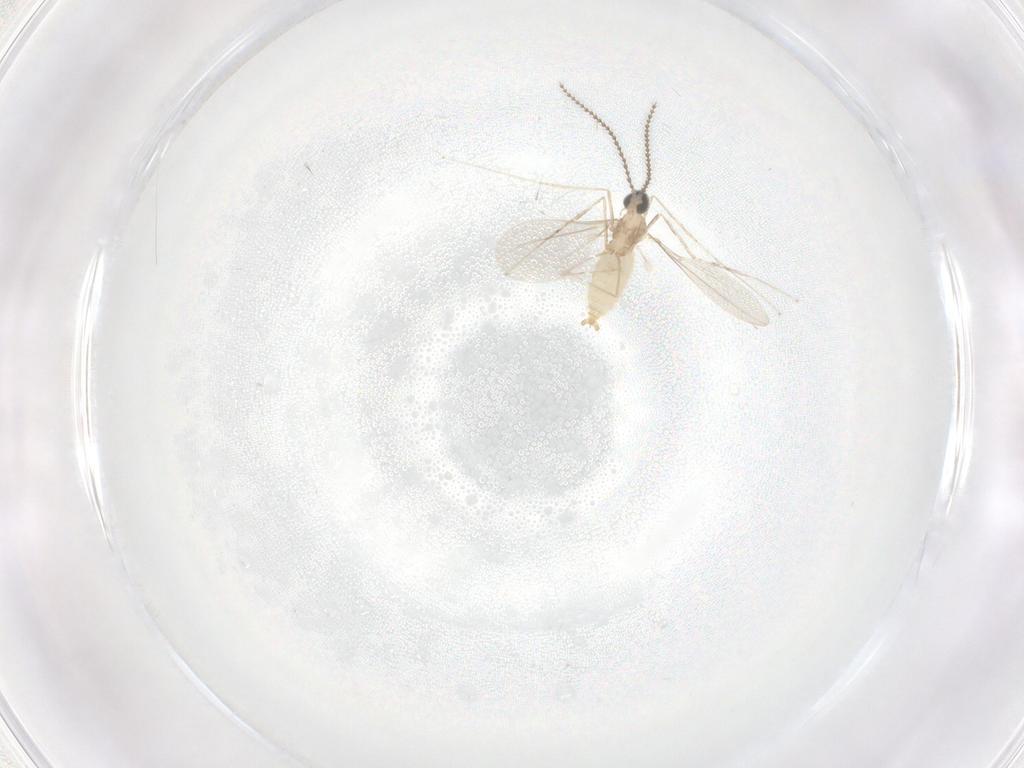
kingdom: Animalia
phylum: Arthropoda
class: Insecta
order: Diptera
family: Cecidomyiidae
